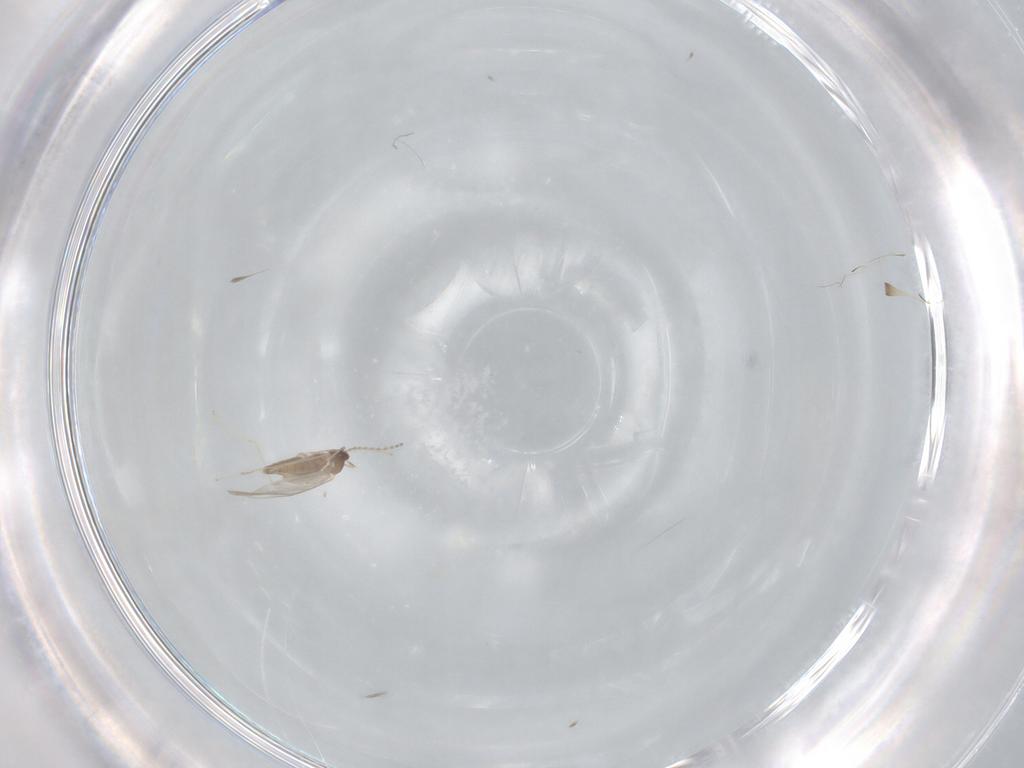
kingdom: Animalia
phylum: Arthropoda
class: Insecta
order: Diptera
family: Cecidomyiidae
